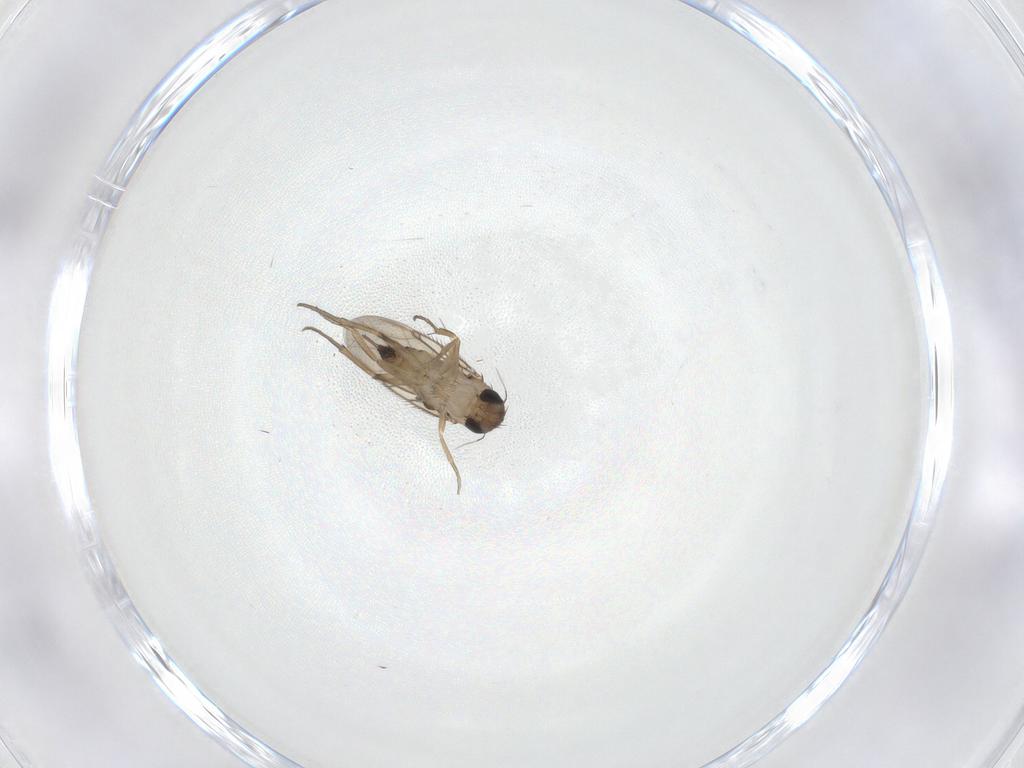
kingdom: Animalia
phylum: Arthropoda
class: Insecta
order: Diptera
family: Phoridae
